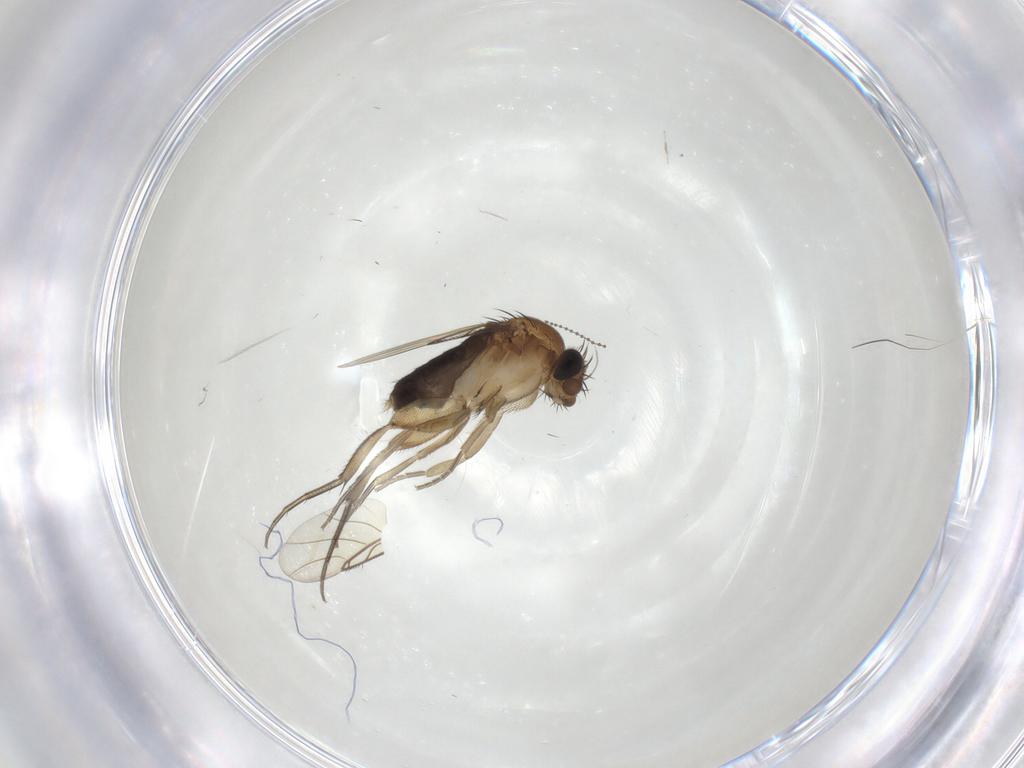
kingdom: Animalia
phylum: Arthropoda
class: Insecta
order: Diptera
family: Phoridae
